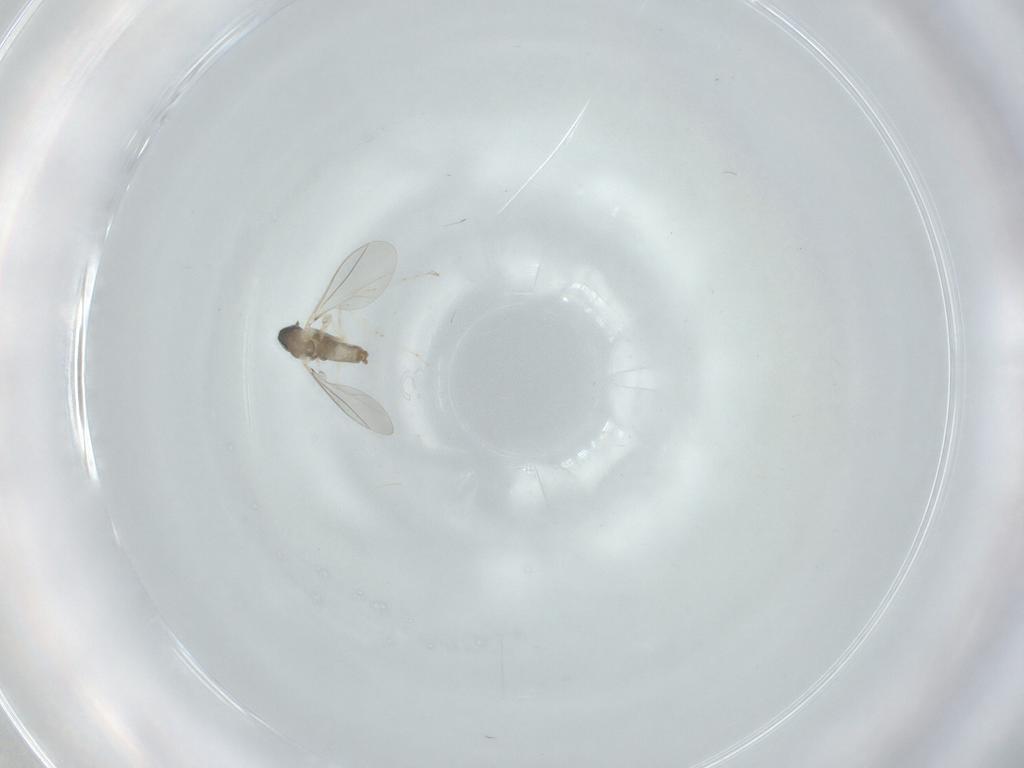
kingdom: Animalia
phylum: Arthropoda
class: Insecta
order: Diptera
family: Cecidomyiidae
